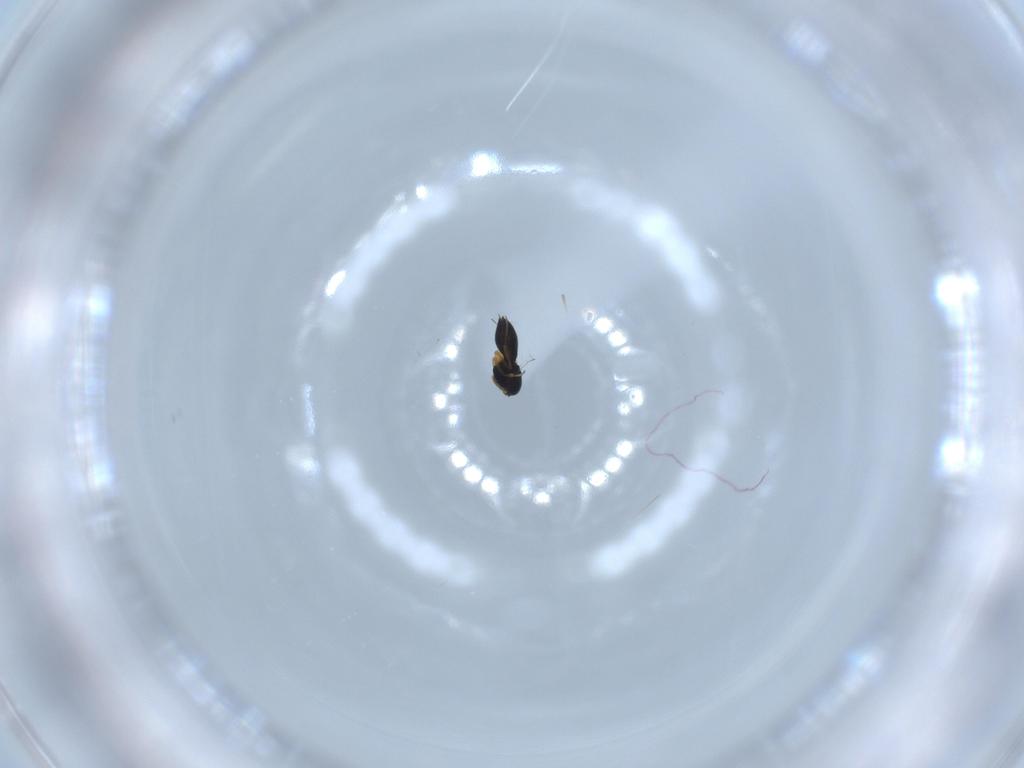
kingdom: Animalia
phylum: Arthropoda
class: Insecta
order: Hymenoptera
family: Scelionidae
